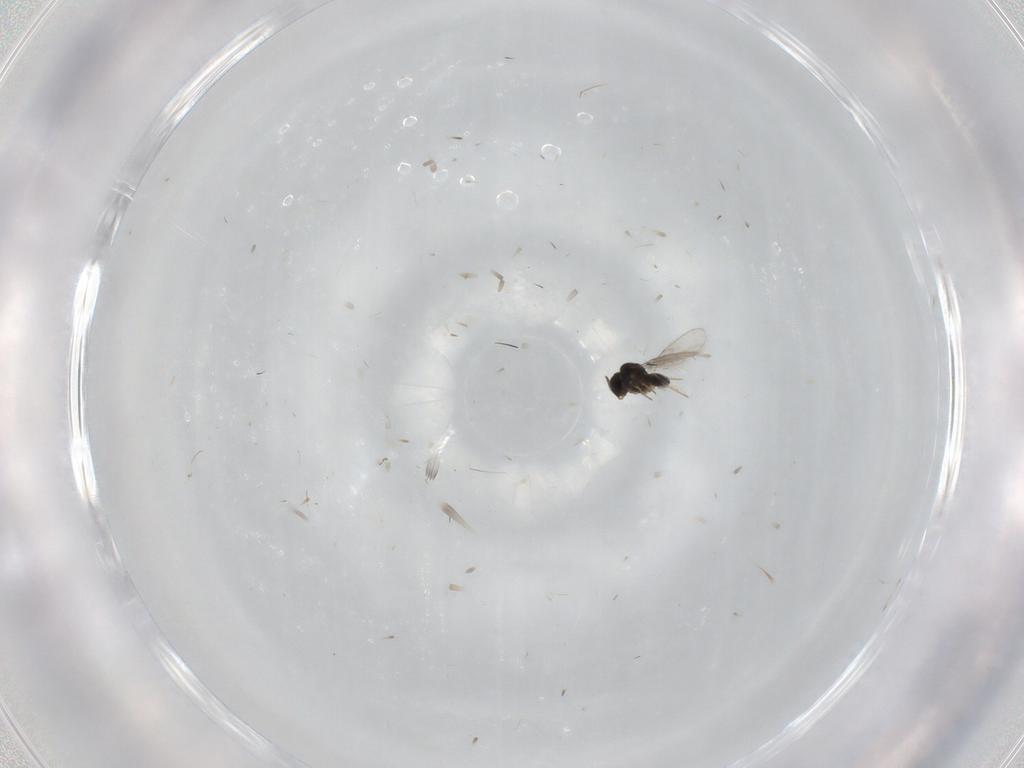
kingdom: Animalia
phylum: Arthropoda
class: Insecta
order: Hymenoptera
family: Scelionidae
